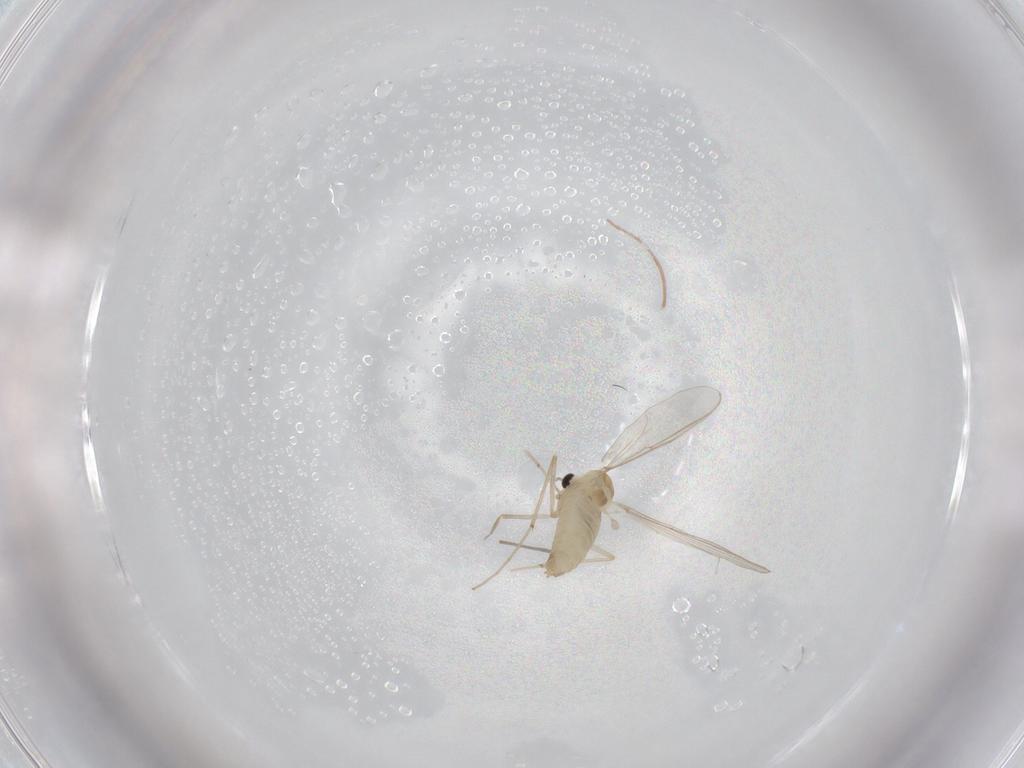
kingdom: Animalia
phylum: Arthropoda
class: Insecta
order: Diptera
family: Chironomidae
